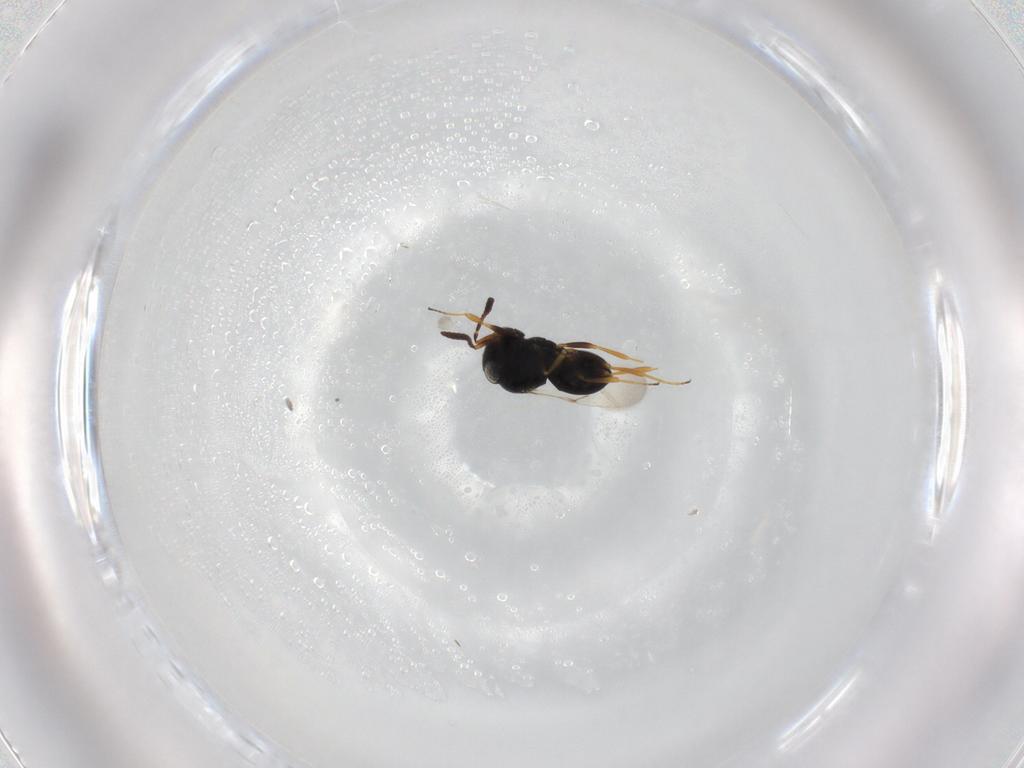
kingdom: Animalia
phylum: Arthropoda
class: Insecta
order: Hymenoptera
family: Scelionidae
